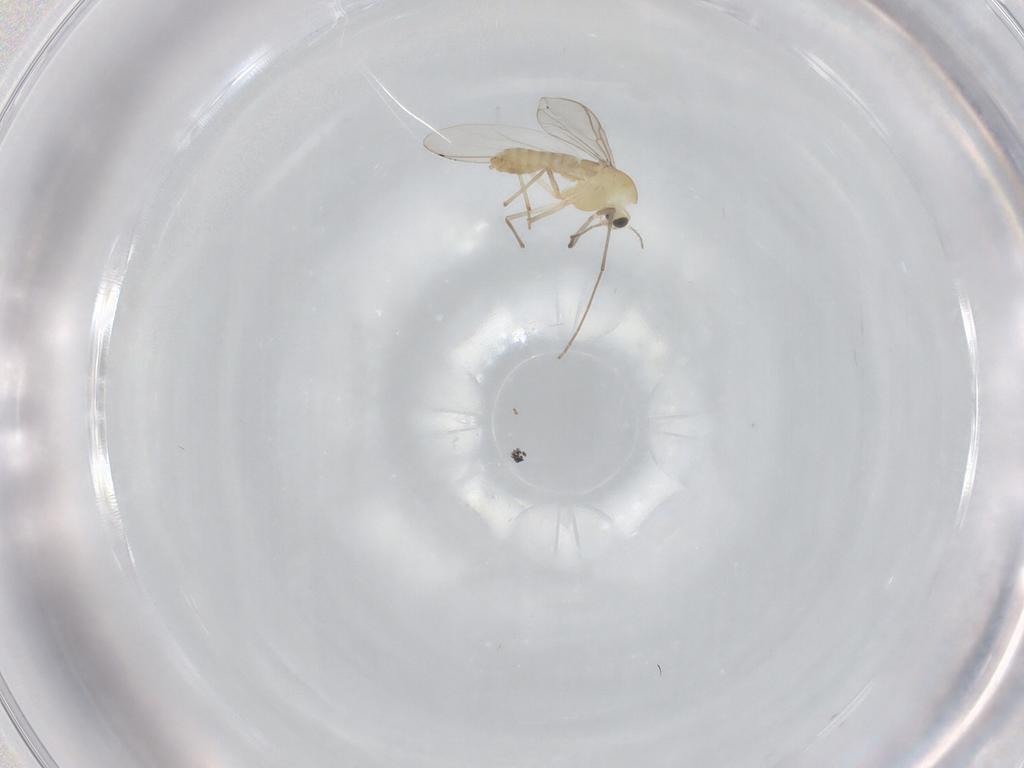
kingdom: Animalia
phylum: Arthropoda
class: Insecta
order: Diptera
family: Chironomidae
